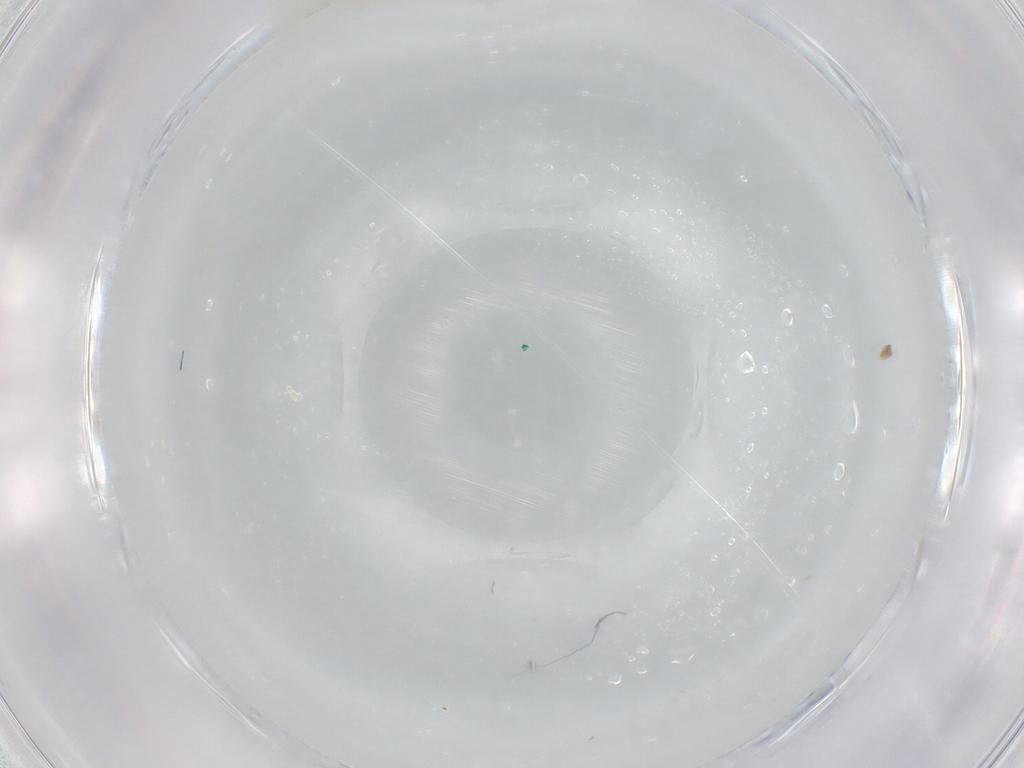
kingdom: Animalia
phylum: Arthropoda
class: Insecta
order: Diptera
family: Chironomidae
